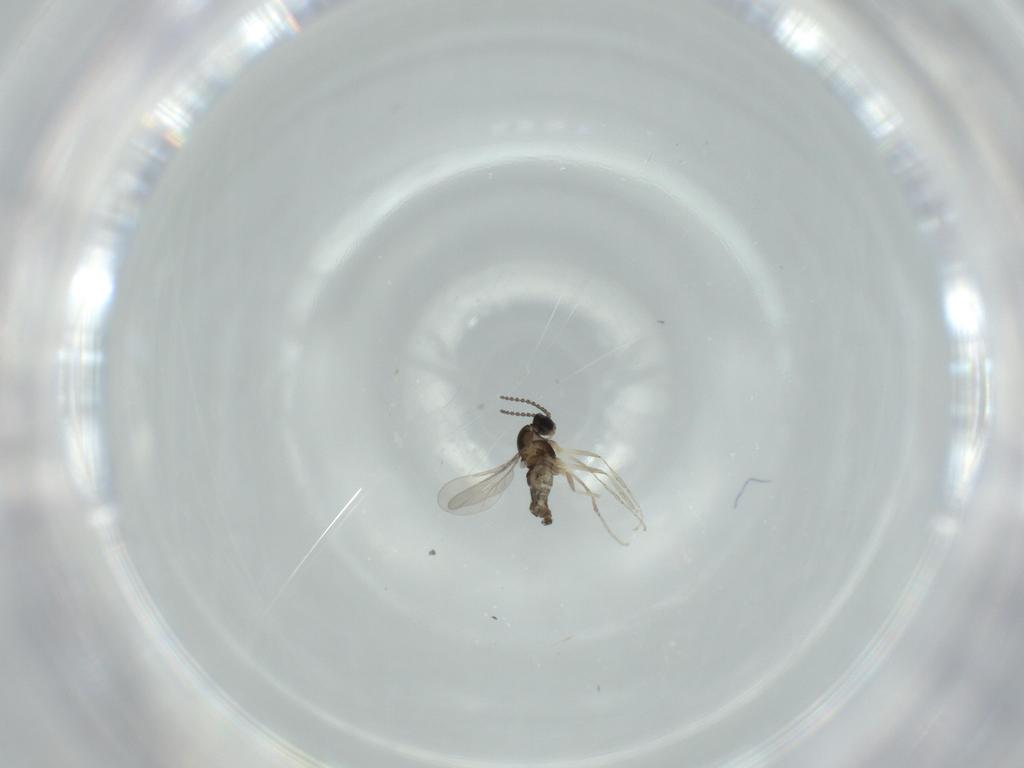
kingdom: Animalia
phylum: Arthropoda
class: Insecta
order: Diptera
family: Cecidomyiidae
